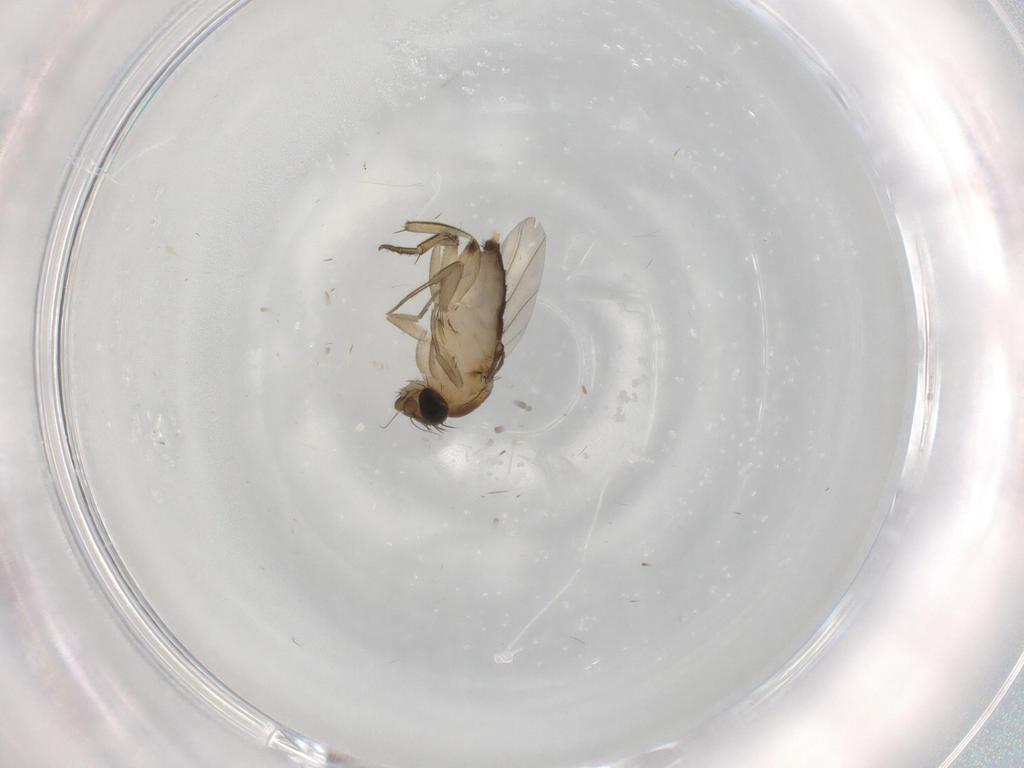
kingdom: Animalia
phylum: Arthropoda
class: Insecta
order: Diptera
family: Phoridae
